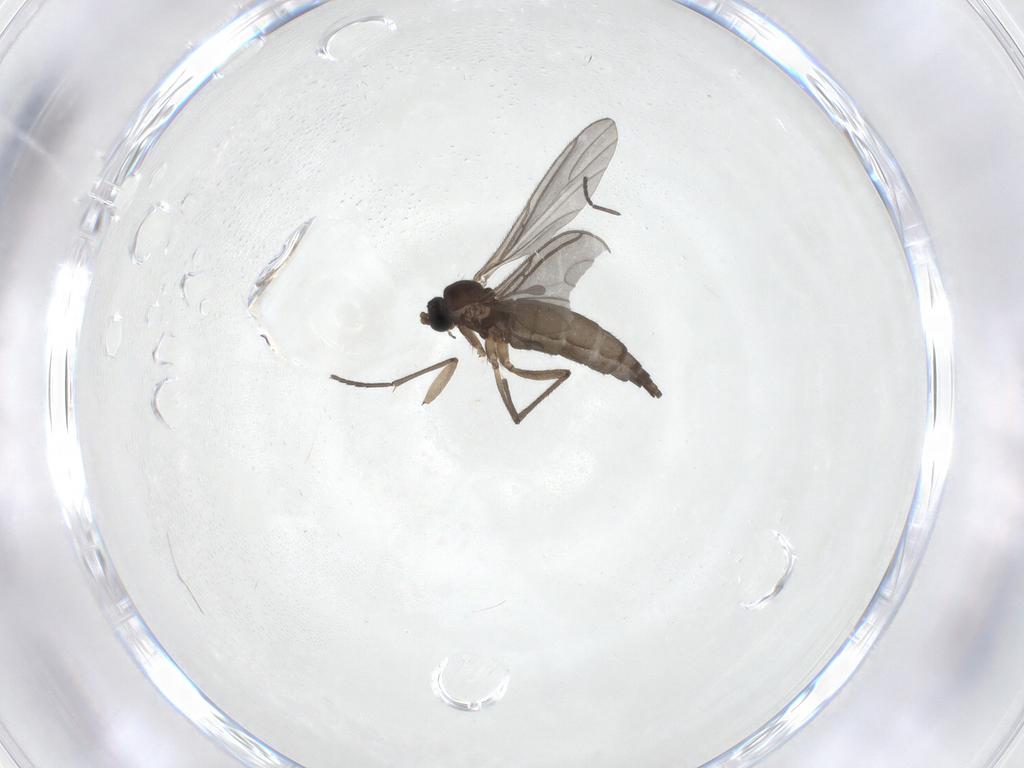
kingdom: Animalia
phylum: Arthropoda
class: Insecta
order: Diptera
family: Sciaridae
